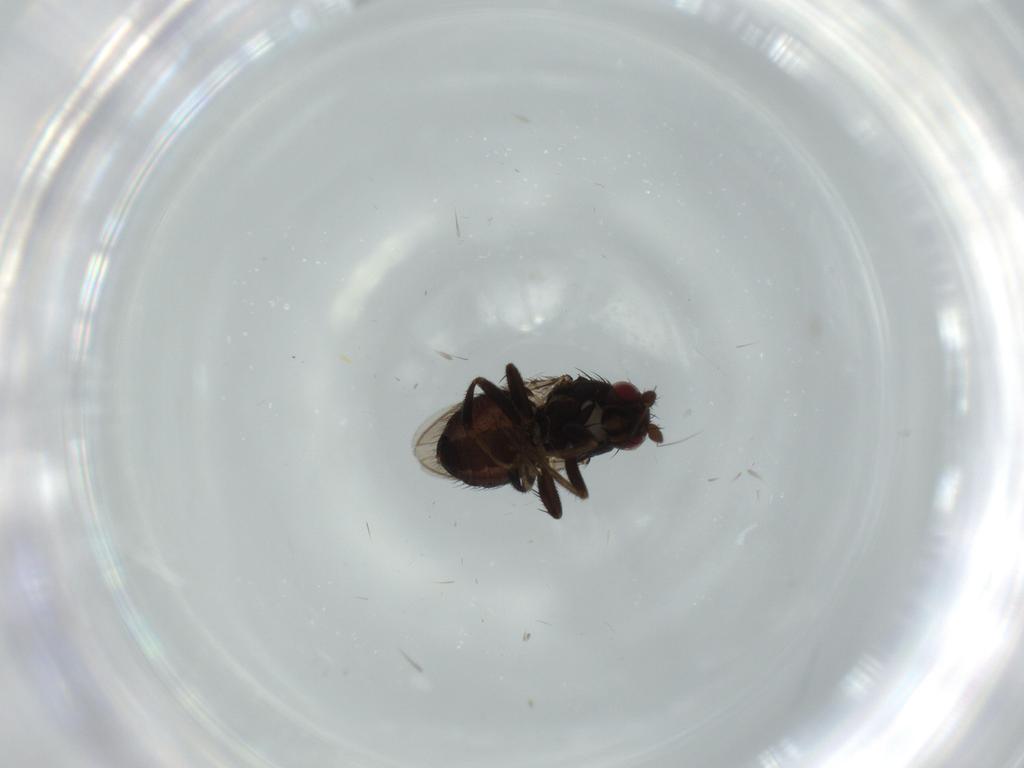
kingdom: Animalia
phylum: Arthropoda
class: Insecta
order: Diptera
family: Sphaeroceridae
